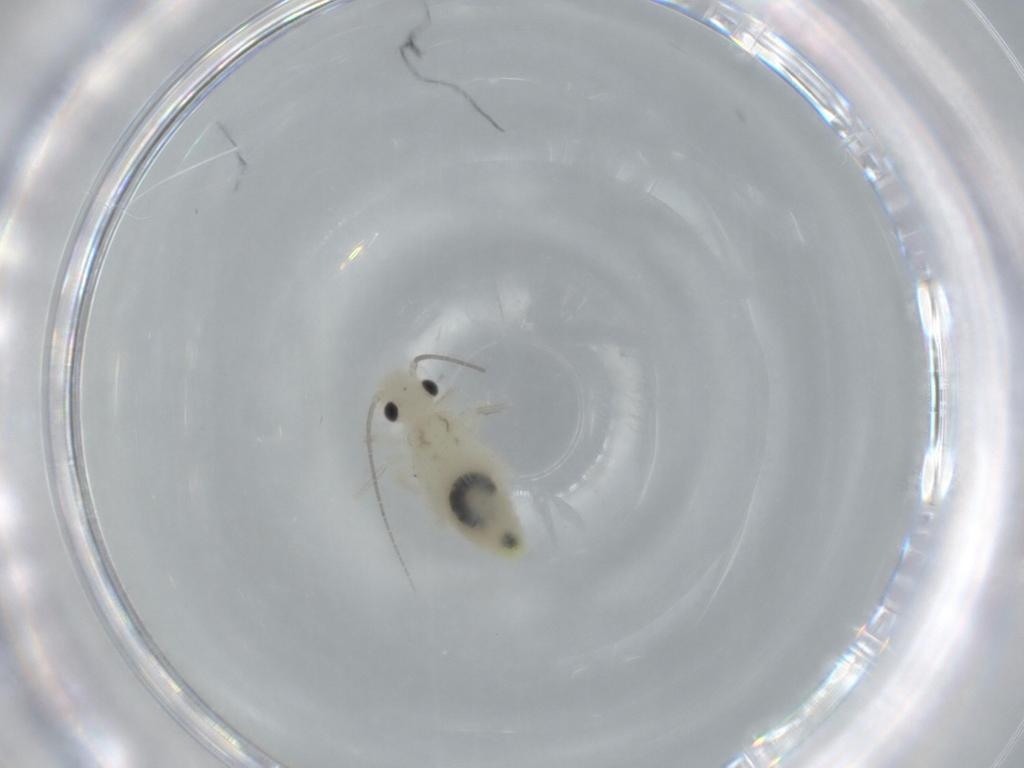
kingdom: Animalia
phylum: Arthropoda
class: Insecta
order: Psocodea
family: Caeciliusidae
